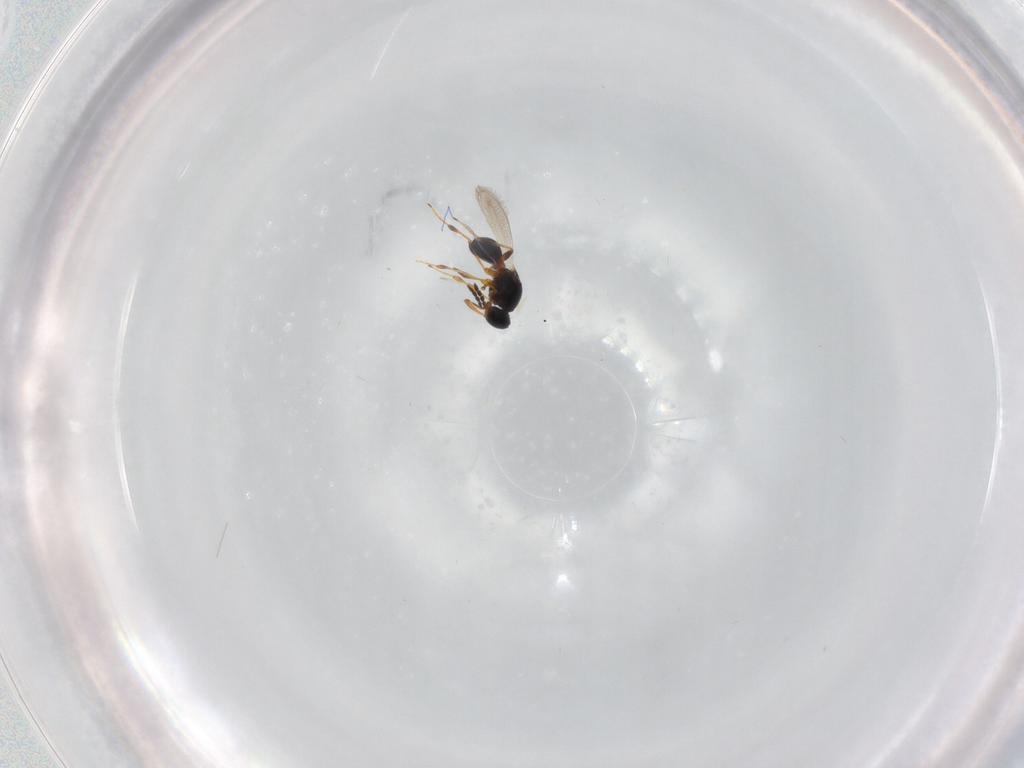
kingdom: Animalia
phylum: Arthropoda
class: Insecta
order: Hymenoptera
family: Platygastridae
